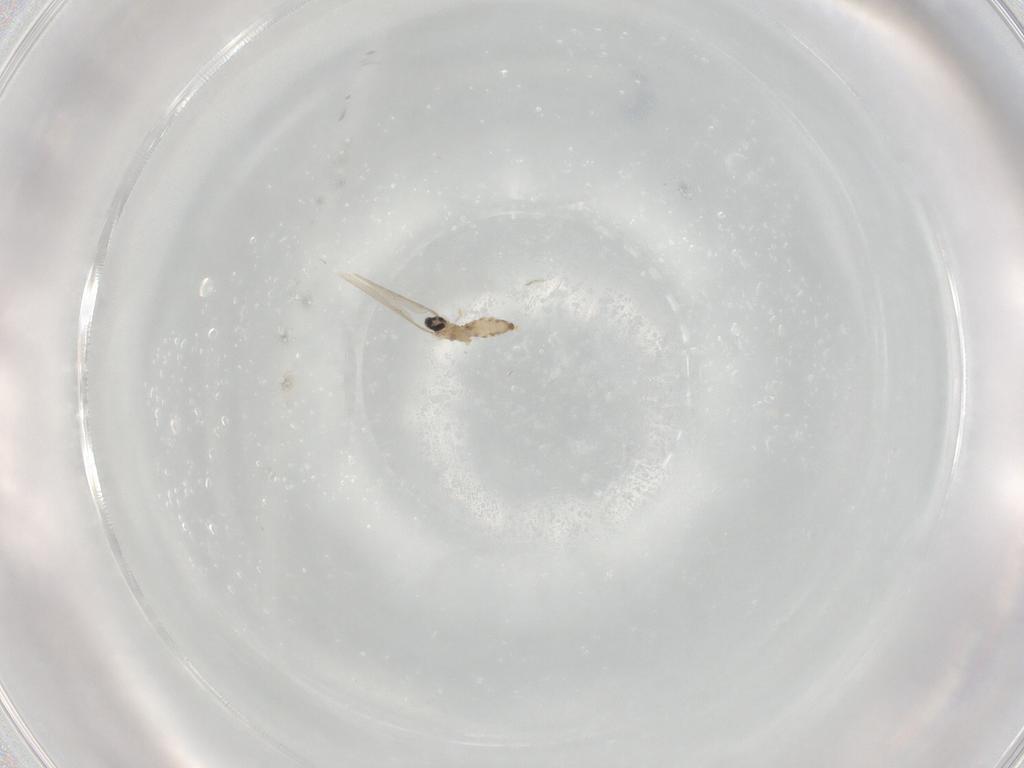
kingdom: Animalia
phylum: Arthropoda
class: Insecta
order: Diptera
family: Cecidomyiidae
